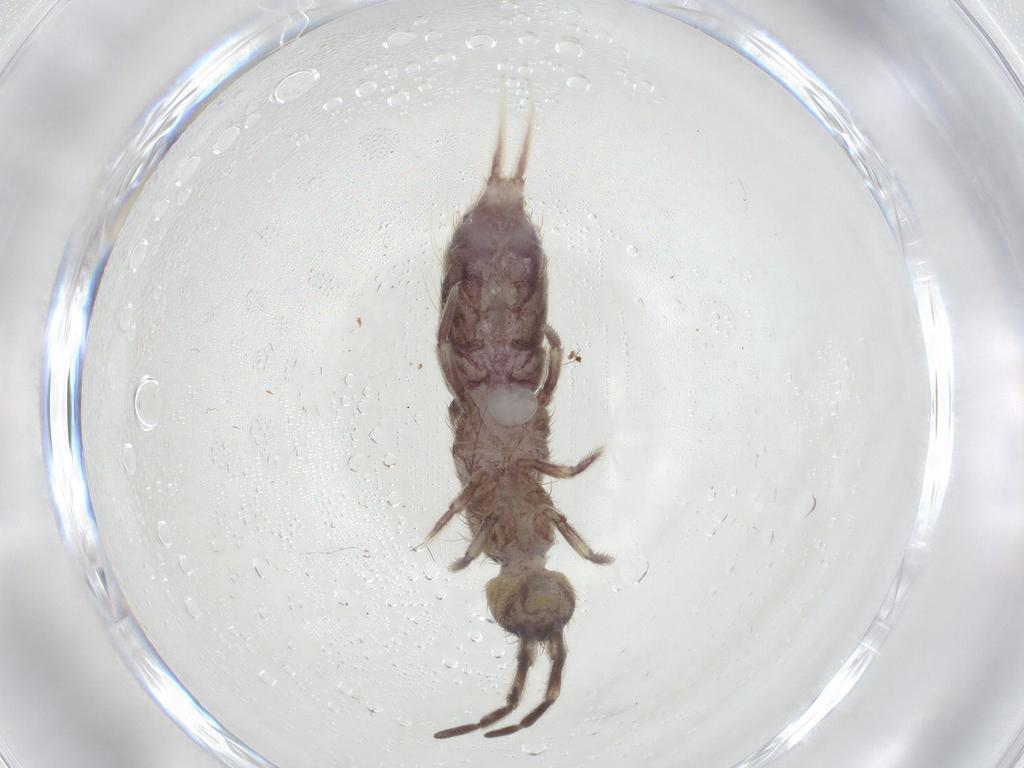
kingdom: Animalia
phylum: Arthropoda
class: Collembola
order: Entomobryomorpha
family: Isotomidae
